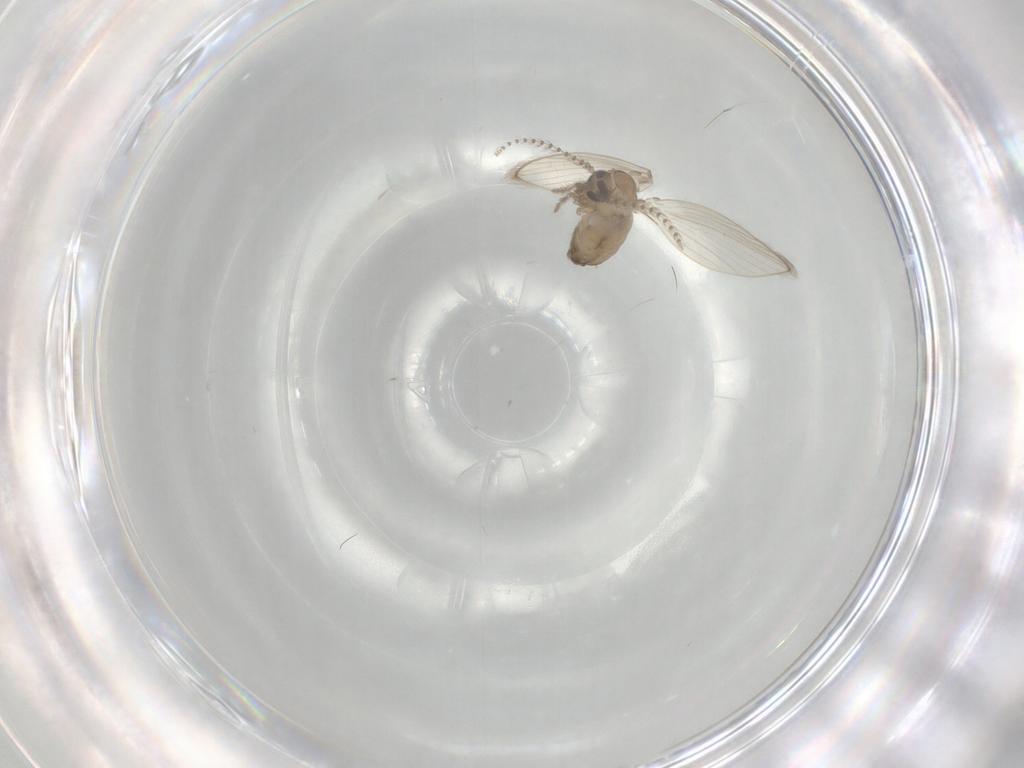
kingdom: Animalia
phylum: Arthropoda
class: Insecta
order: Diptera
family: Psychodidae
